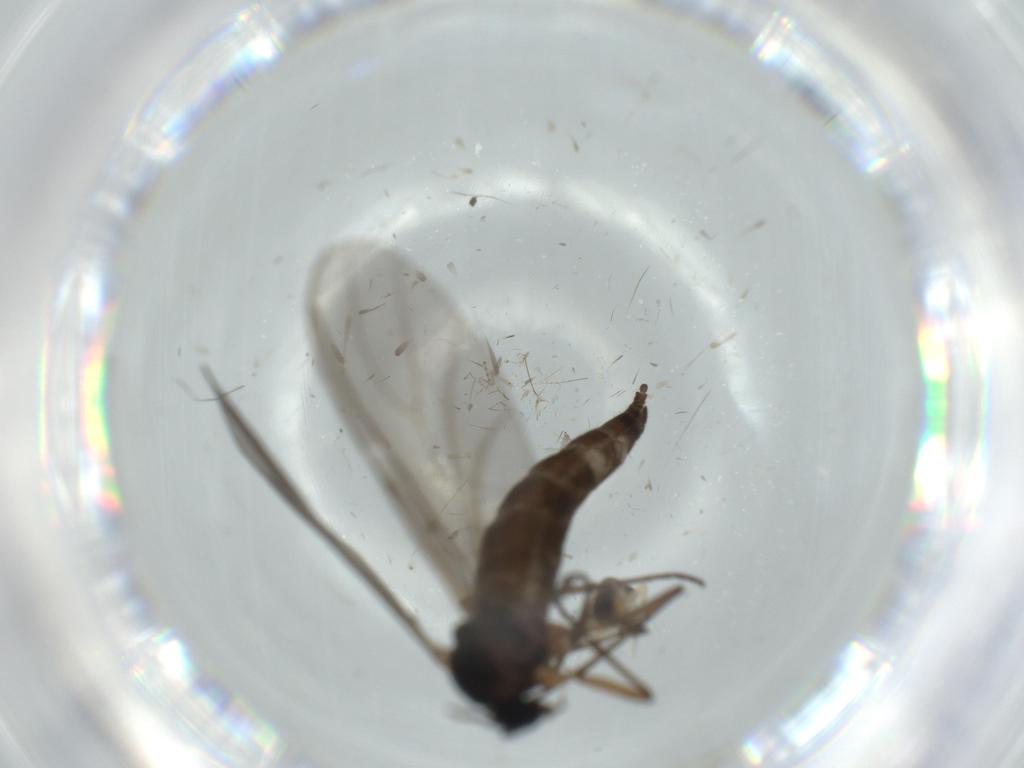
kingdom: Animalia
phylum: Arthropoda
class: Insecta
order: Diptera
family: Sciaridae
